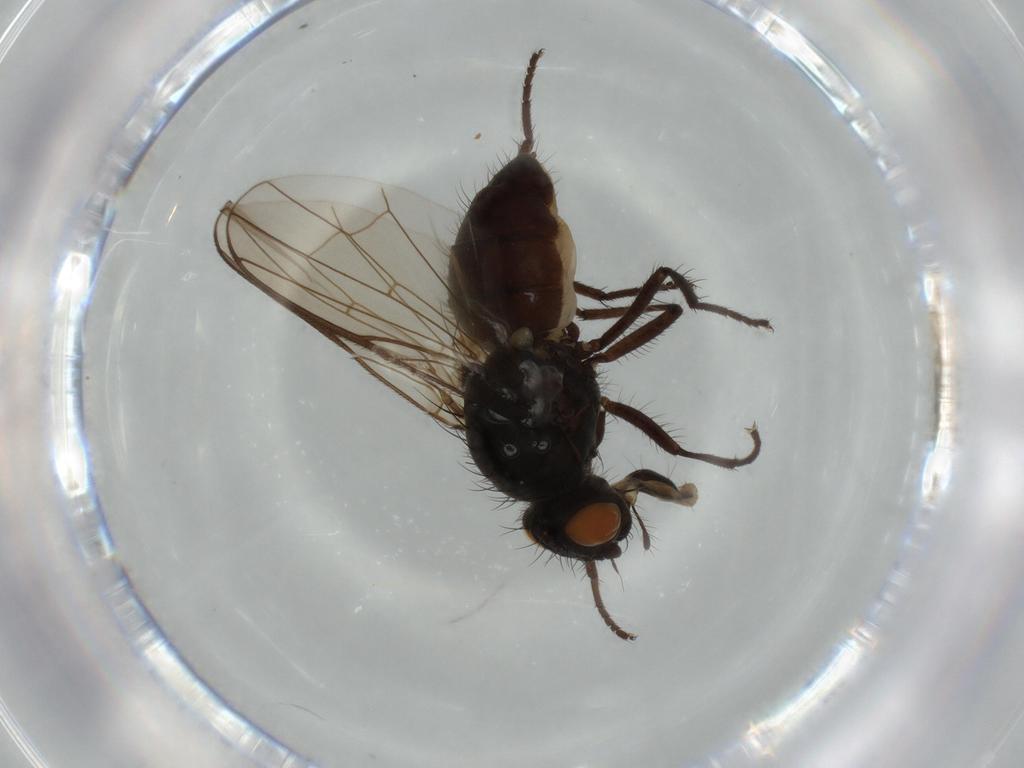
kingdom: Animalia
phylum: Arthropoda
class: Insecta
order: Diptera
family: Anthomyiidae
